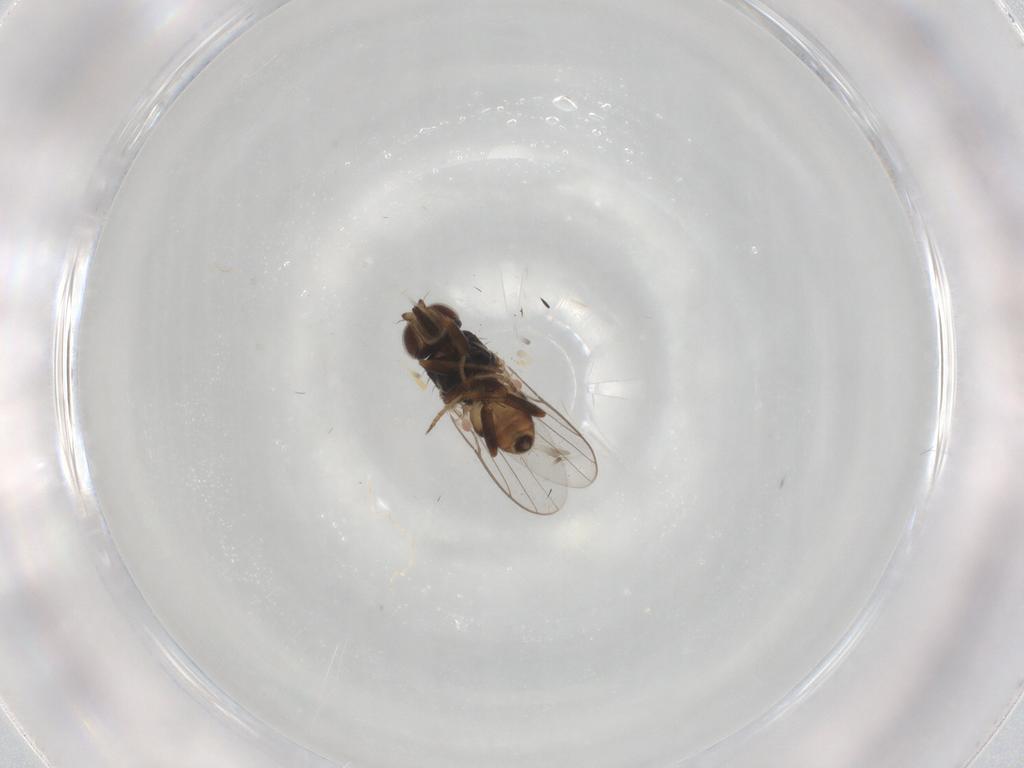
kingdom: Animalia
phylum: Arthropoda
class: Insecta
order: Diptera
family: Chloropidae
